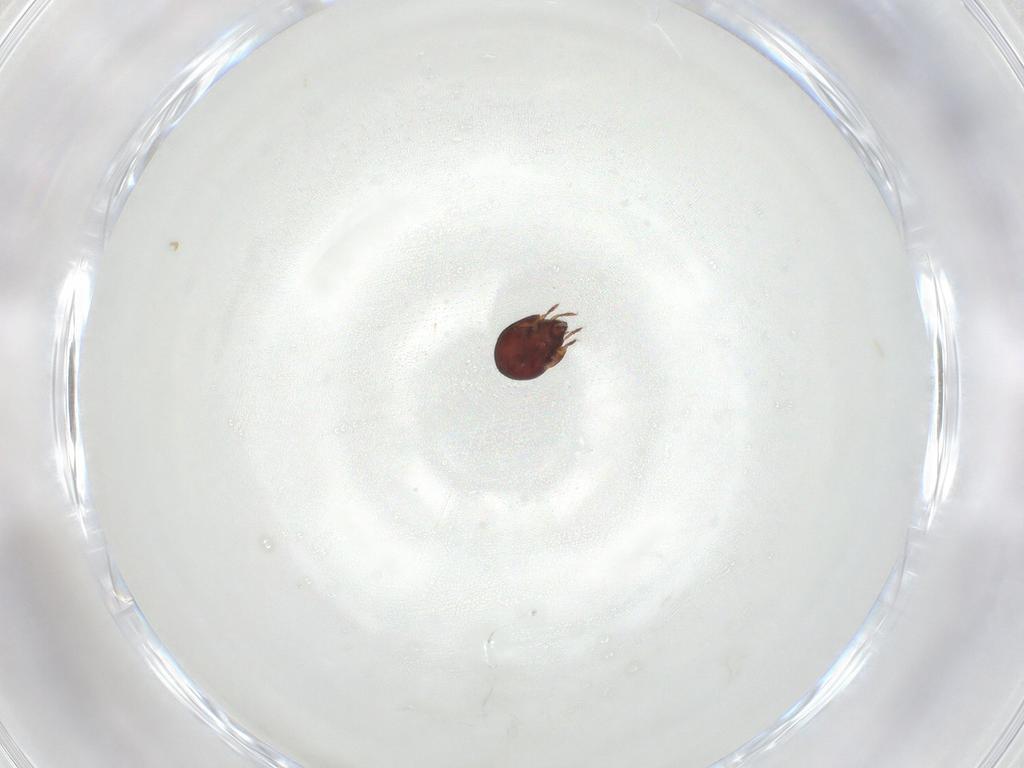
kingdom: Animalia
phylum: Arthropoda
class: Arachnida
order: Sarcoptiformes
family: Humerobatidae
